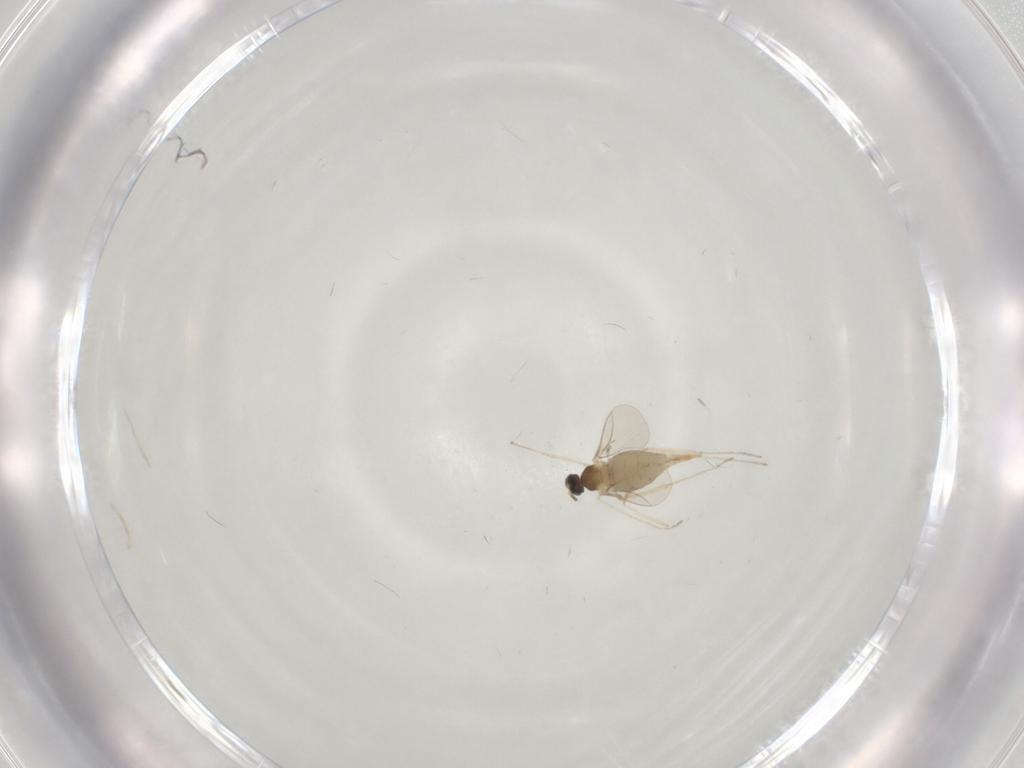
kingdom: Animalia
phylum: Arthropoda
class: Insecta
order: Diptera
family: Cecidomyiidae
